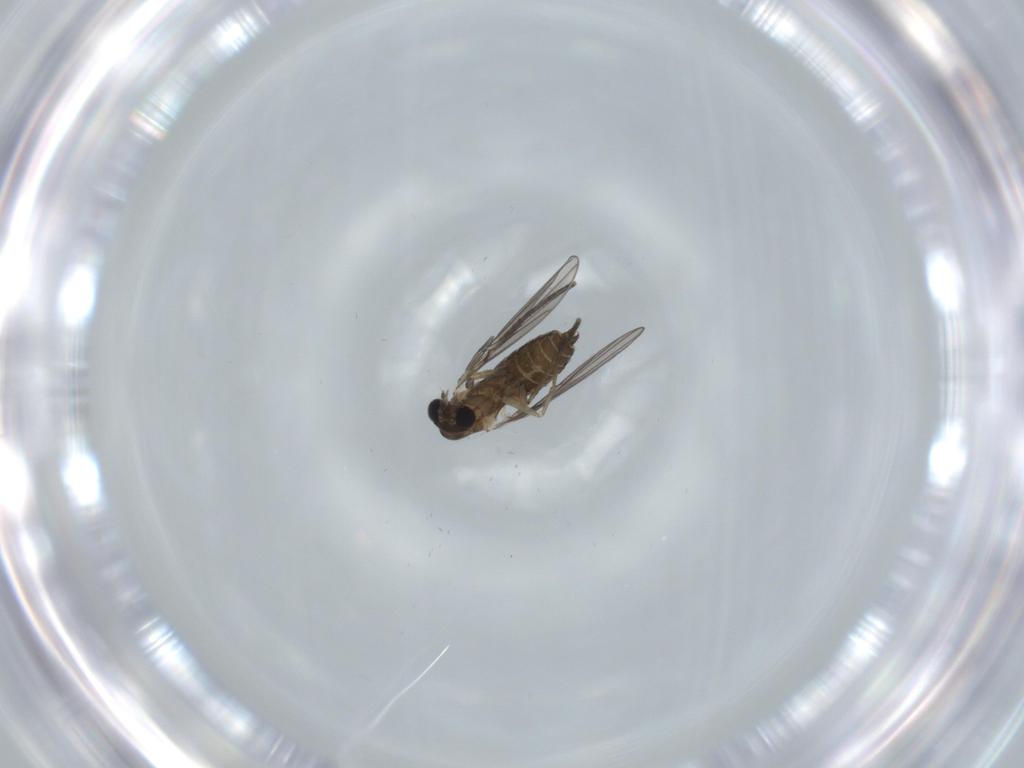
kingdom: Animalia
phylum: Arthropoda
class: Insecta
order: Diptera
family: Psychodidae
